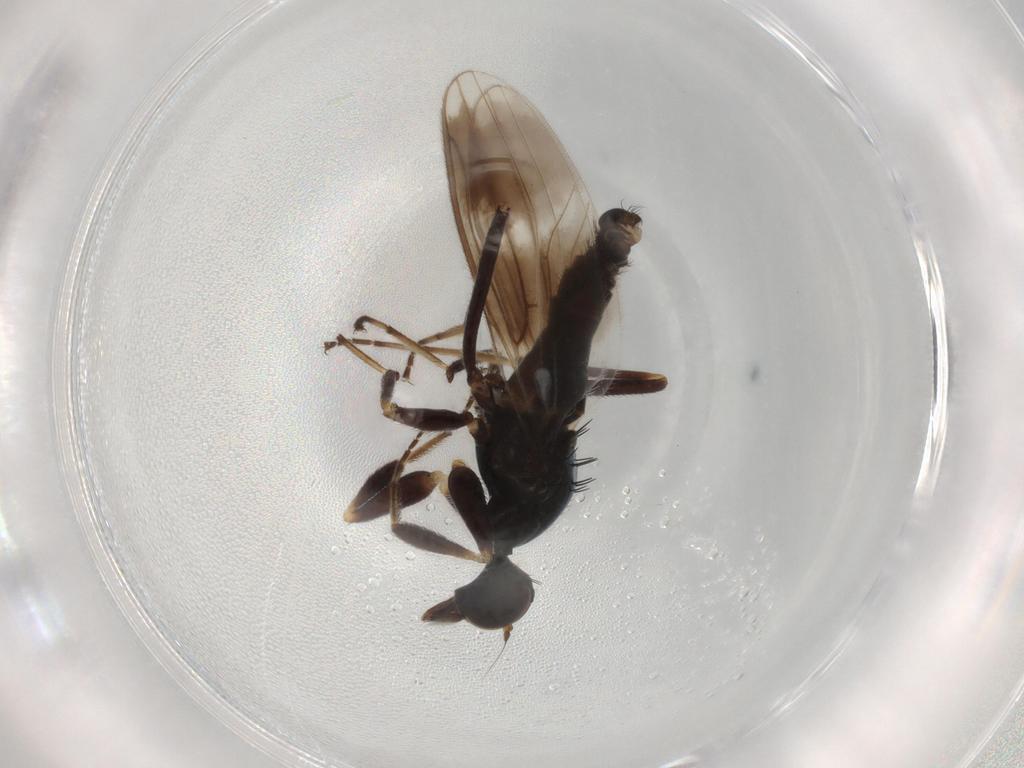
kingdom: Animalia
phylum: Arthropoda
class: Insecta
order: Diptera
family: Hybotidae
